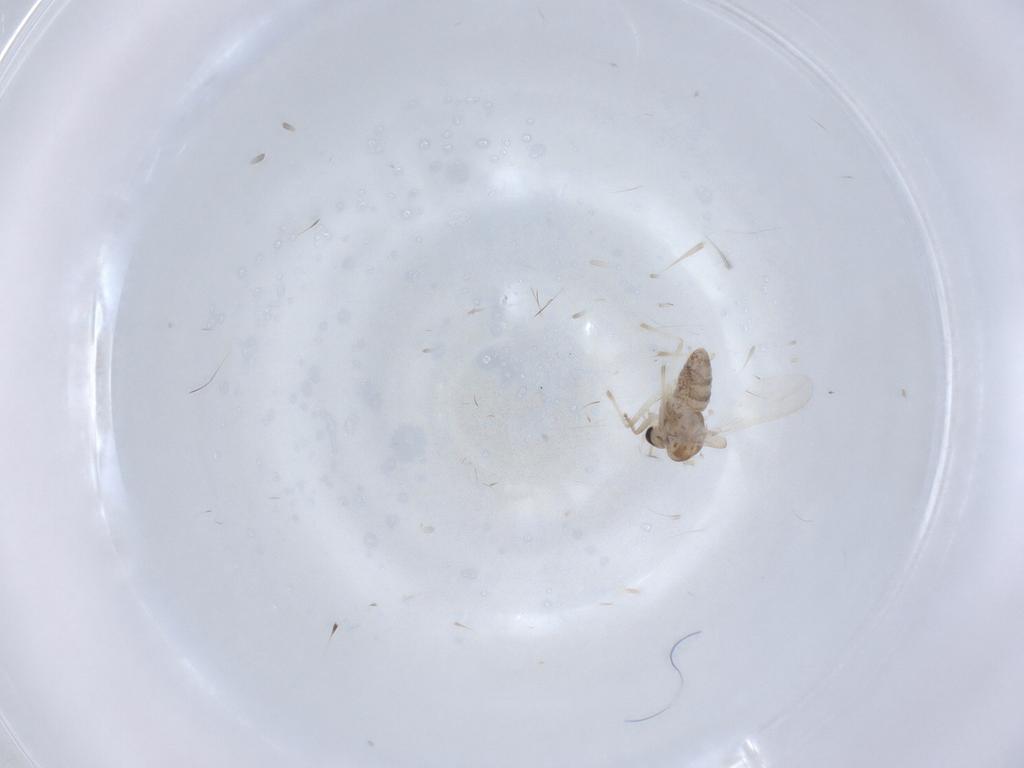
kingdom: Animalia
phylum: Arthropoda
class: Insecta
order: Diptera
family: Chironomidae
